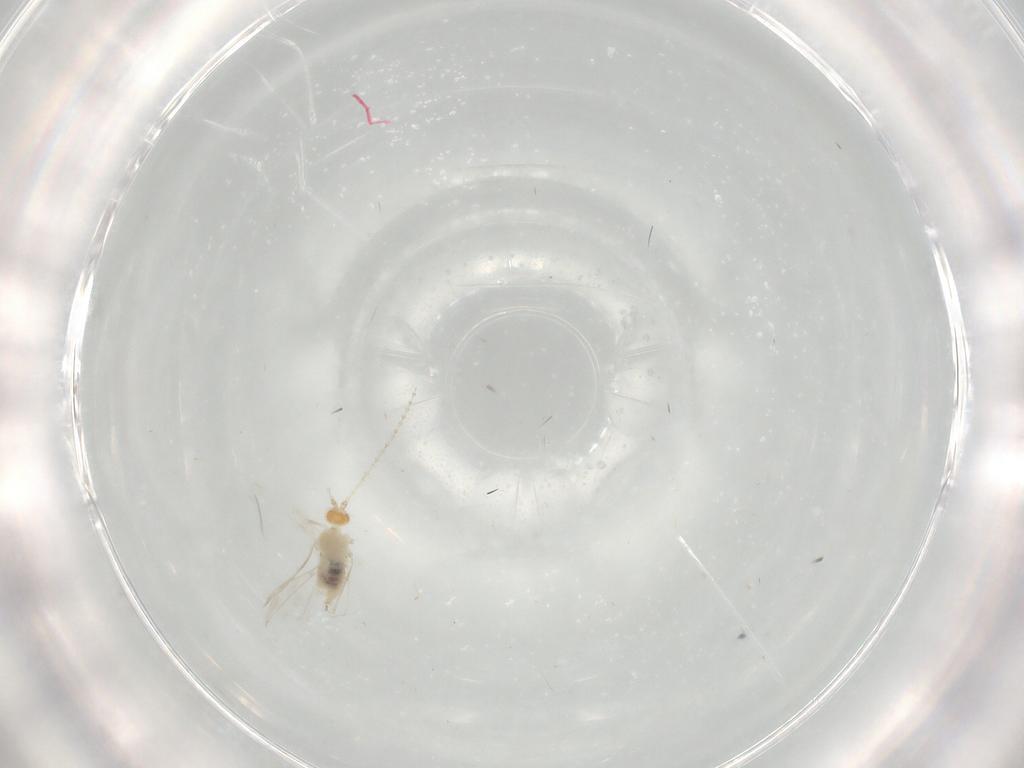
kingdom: Animalia
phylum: Arthropoda
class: Insecta
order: Diptera
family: Cecidomyiidae
